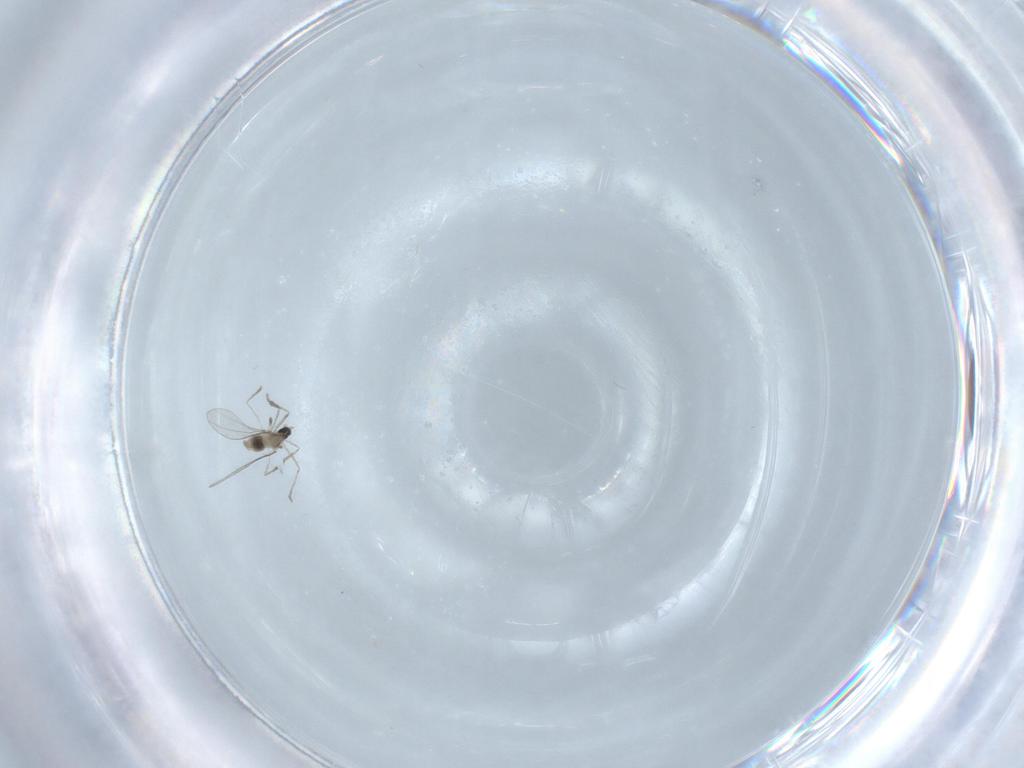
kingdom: Animalia
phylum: Arthropoda
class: Insecta
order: Diptera
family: Cecidomyiidae
